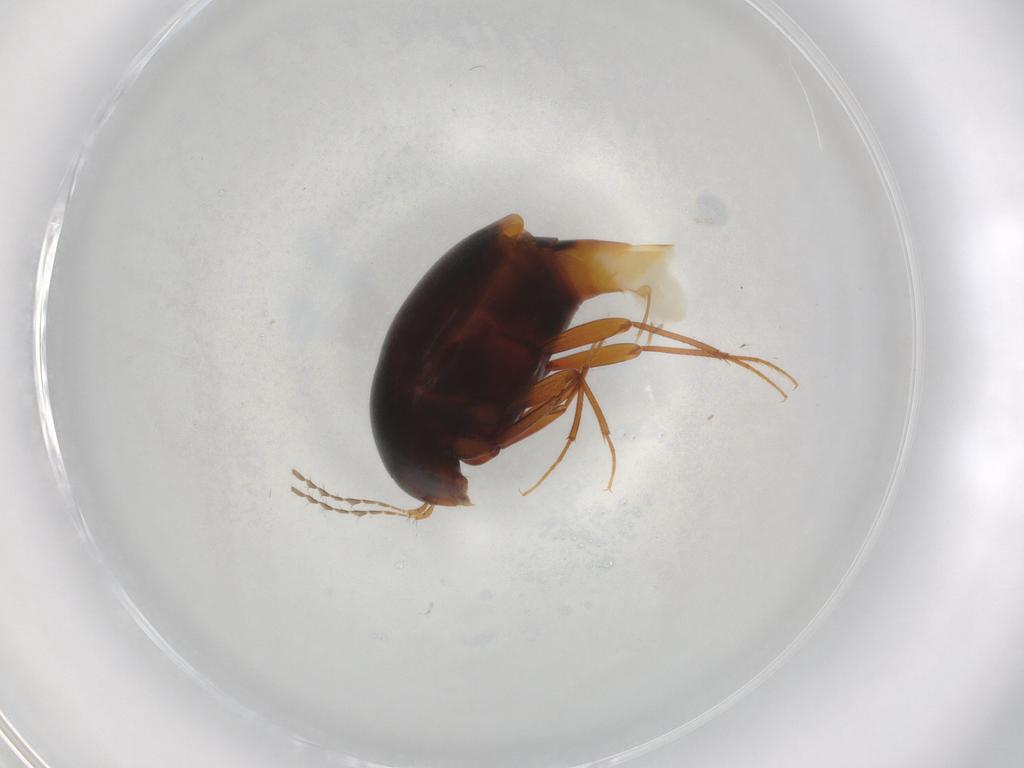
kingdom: Animalia
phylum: Arthropoda
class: Insecta
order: Coleoptera
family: Staphylinidae
